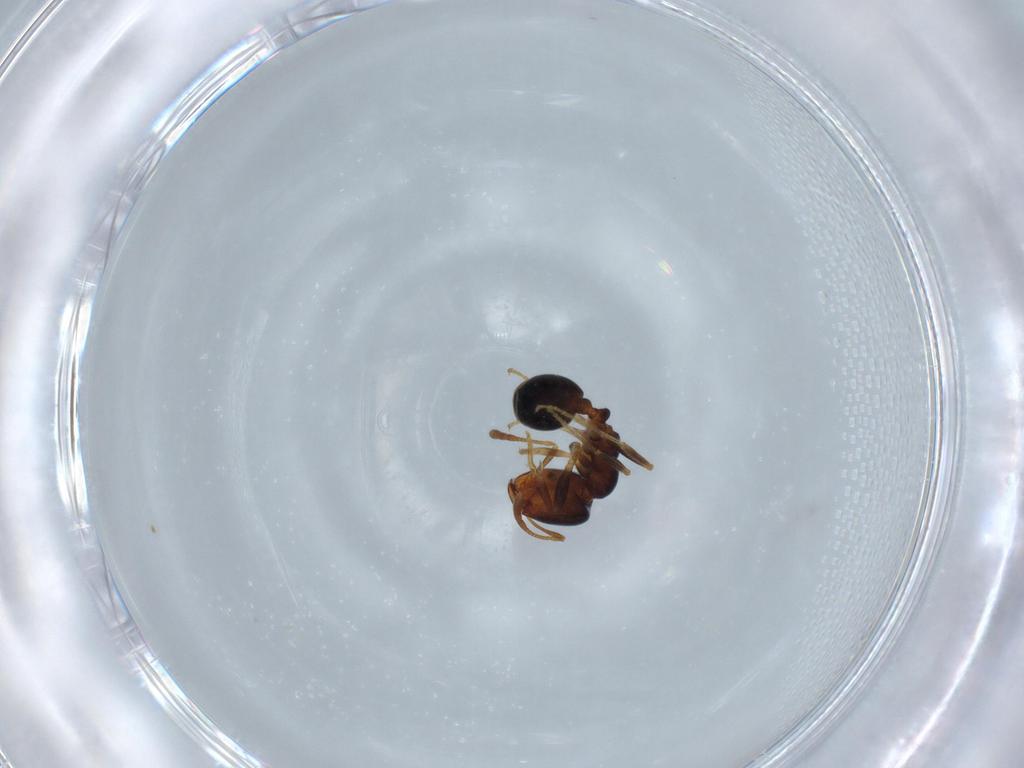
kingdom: Animalia
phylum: Arthropoda
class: Insecta
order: Hymenoptera
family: Formicidae
